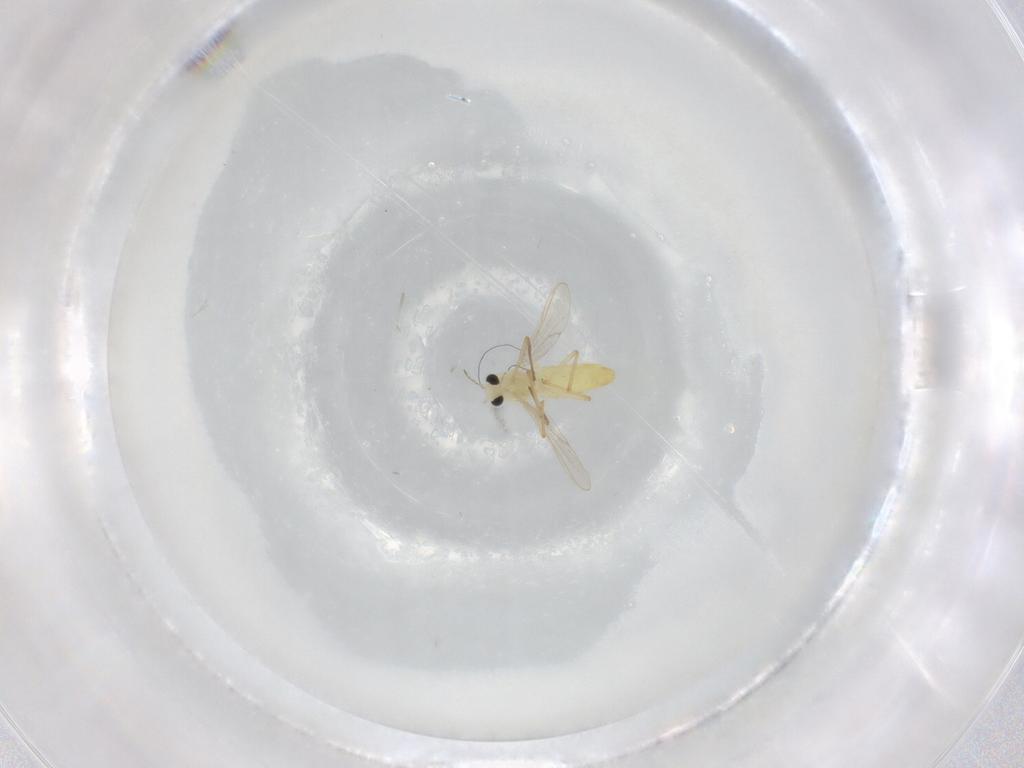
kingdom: Animalia
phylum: Arthropoda
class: Insecta
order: Diptera
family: Chironomidae
